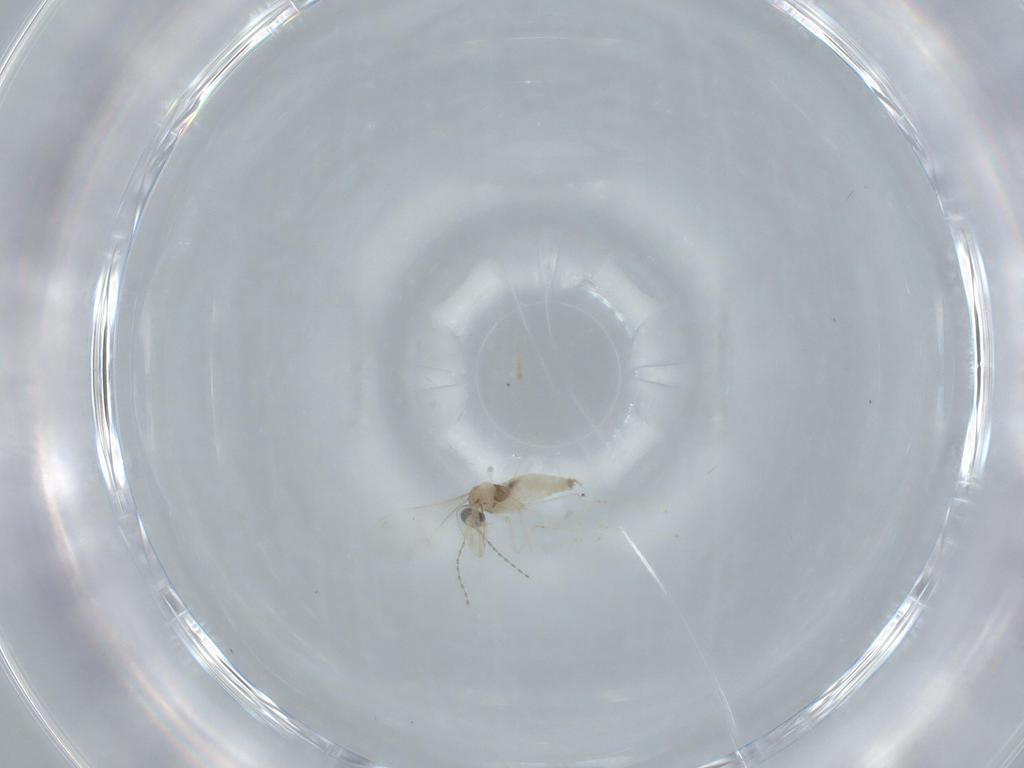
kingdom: Animalia
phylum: Arthropoda
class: Insecta
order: Diptera
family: Cecidomyiidae
